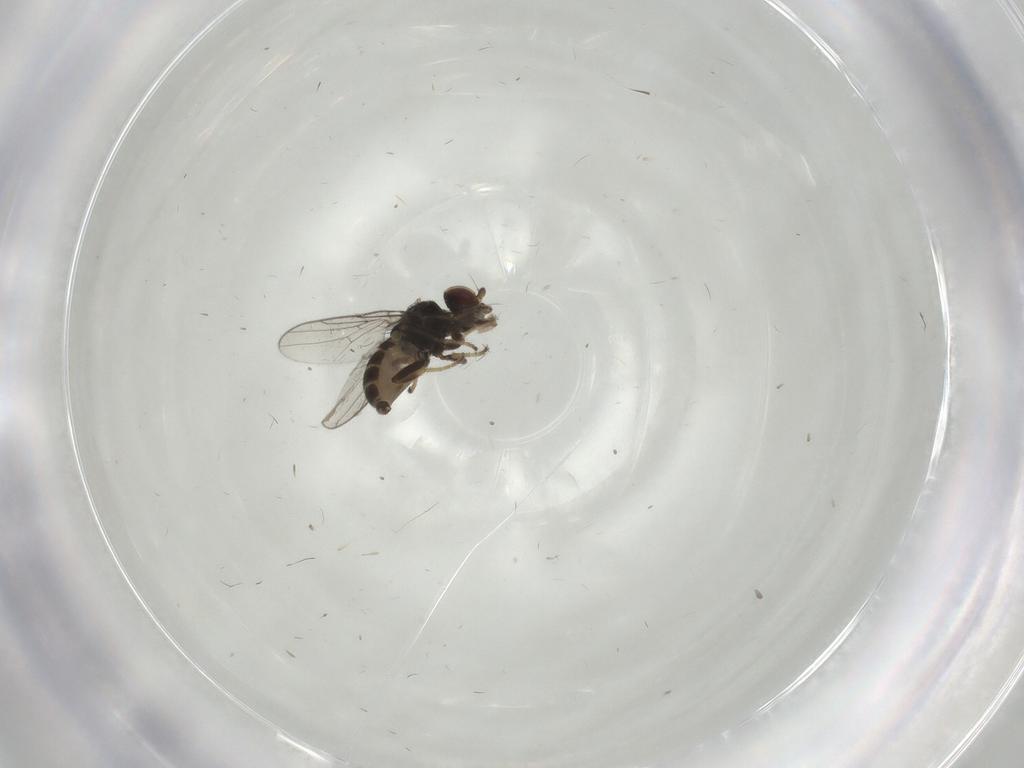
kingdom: Animalia
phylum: Arthropoda
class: Insecta
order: Diptera
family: Chloropidae
